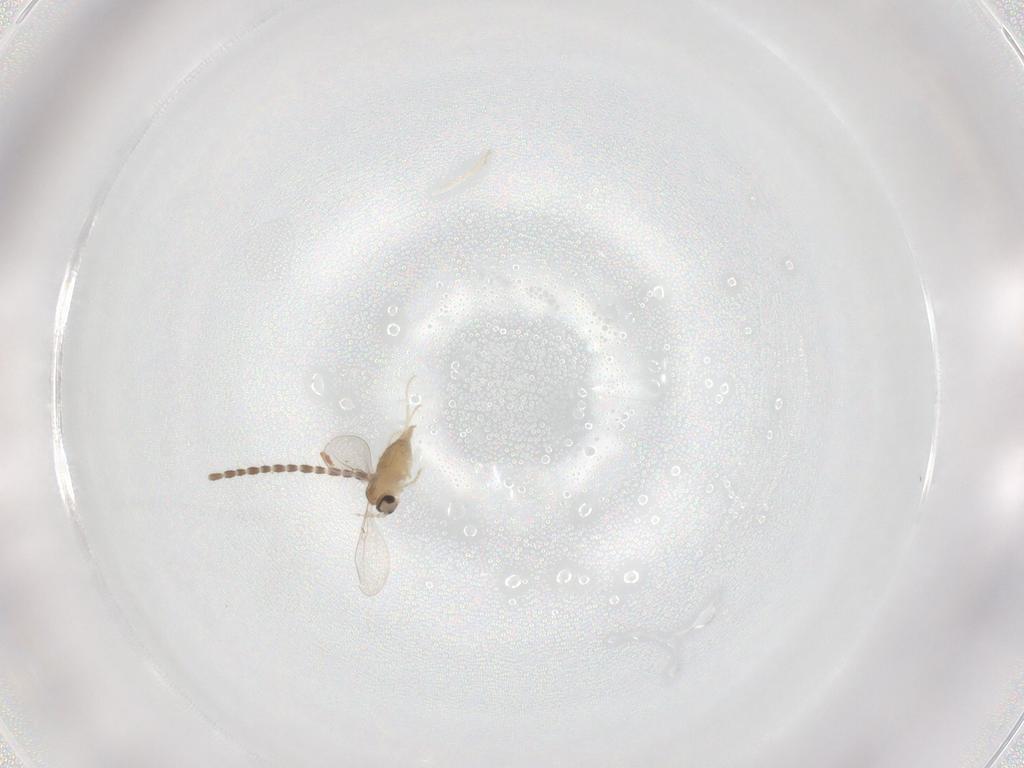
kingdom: Animalia
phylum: Arthropoda
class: Insecta
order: Diptera
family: Cecidomyiidae
